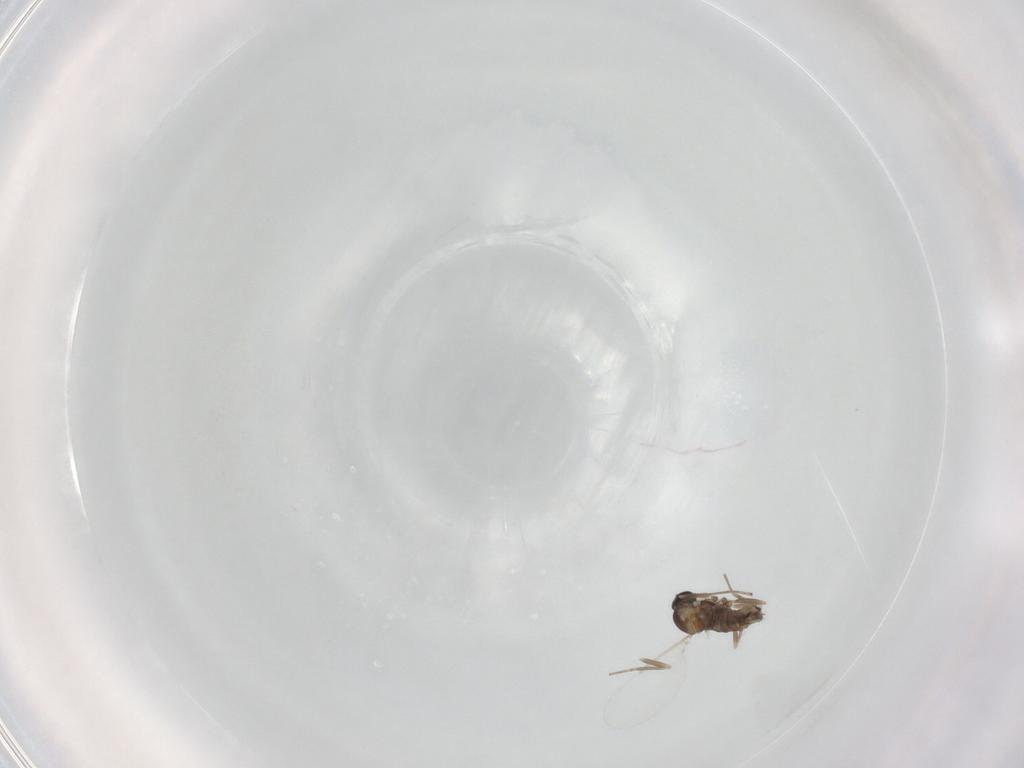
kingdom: Animalia
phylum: Arthropoda
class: Insecta
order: Diptera
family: Cecidomyiidae
